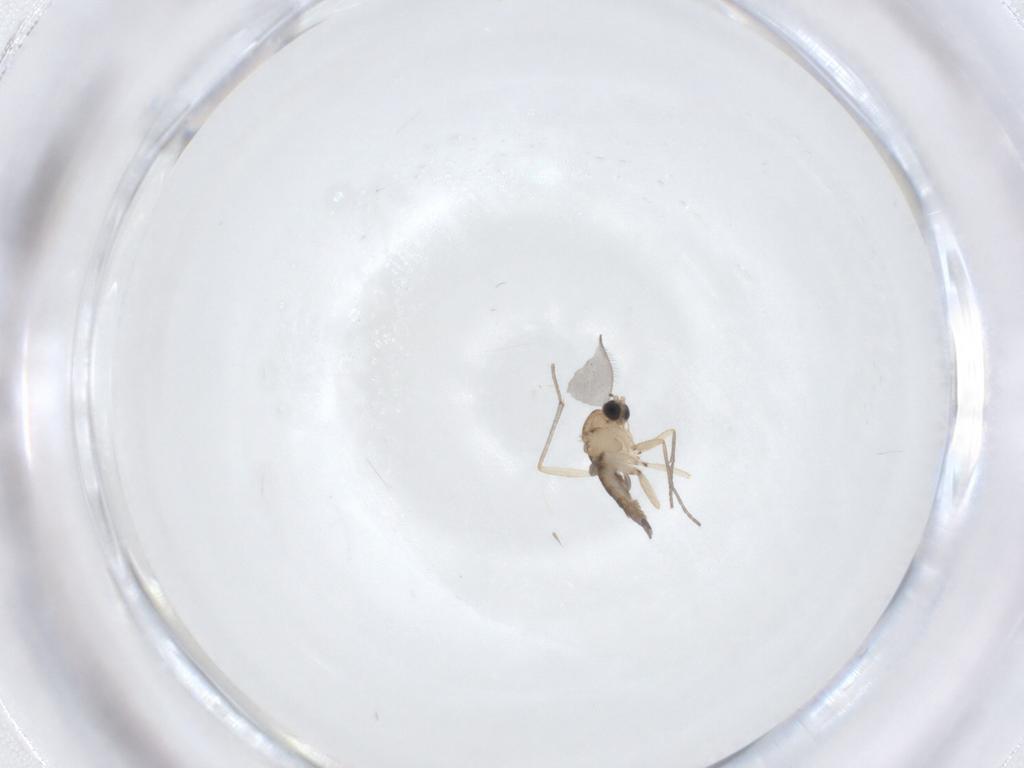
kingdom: Animalia
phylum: Arthropoda
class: Insecta
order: Diptera
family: Sciaridae
